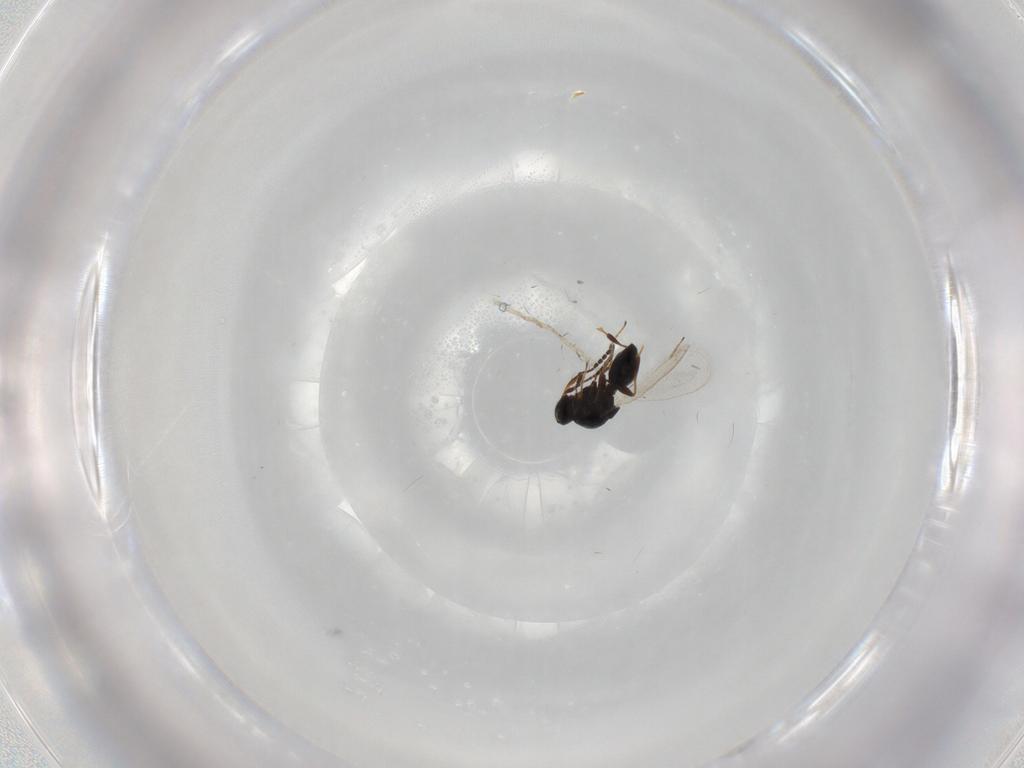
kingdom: Animalia
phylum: Arthropoda
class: Insecta
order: Hymenoptera
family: Platygastridae
